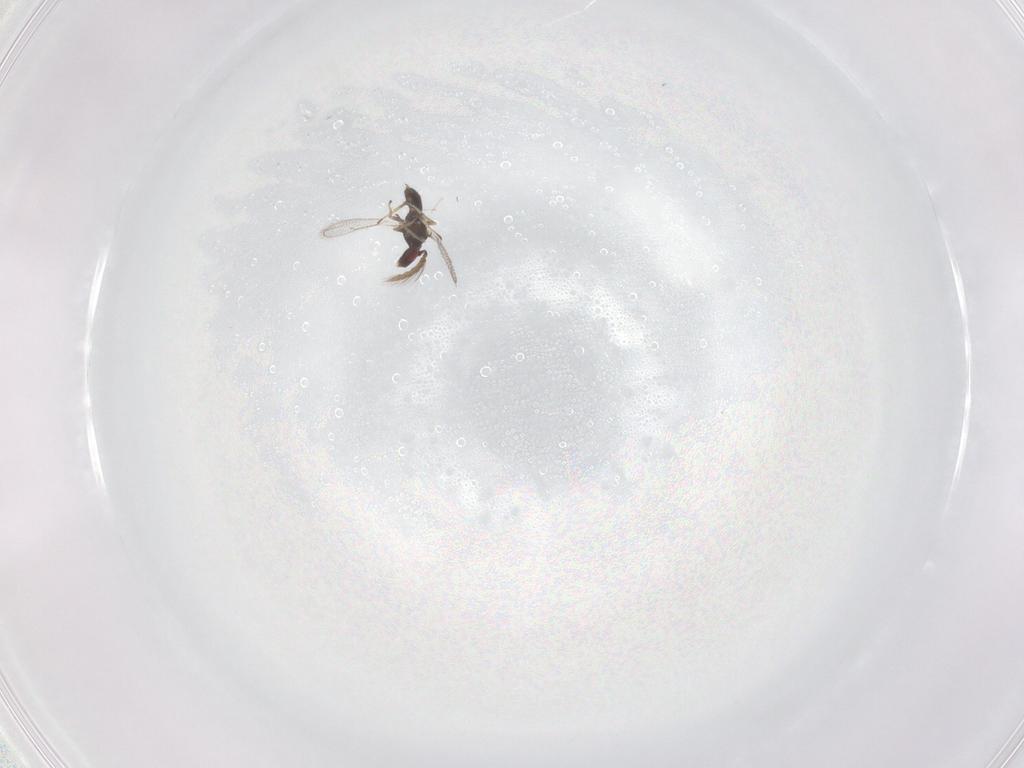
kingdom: Animalia
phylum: Arthropoda
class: Insecta
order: Hymenoptera
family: Eulophidae
